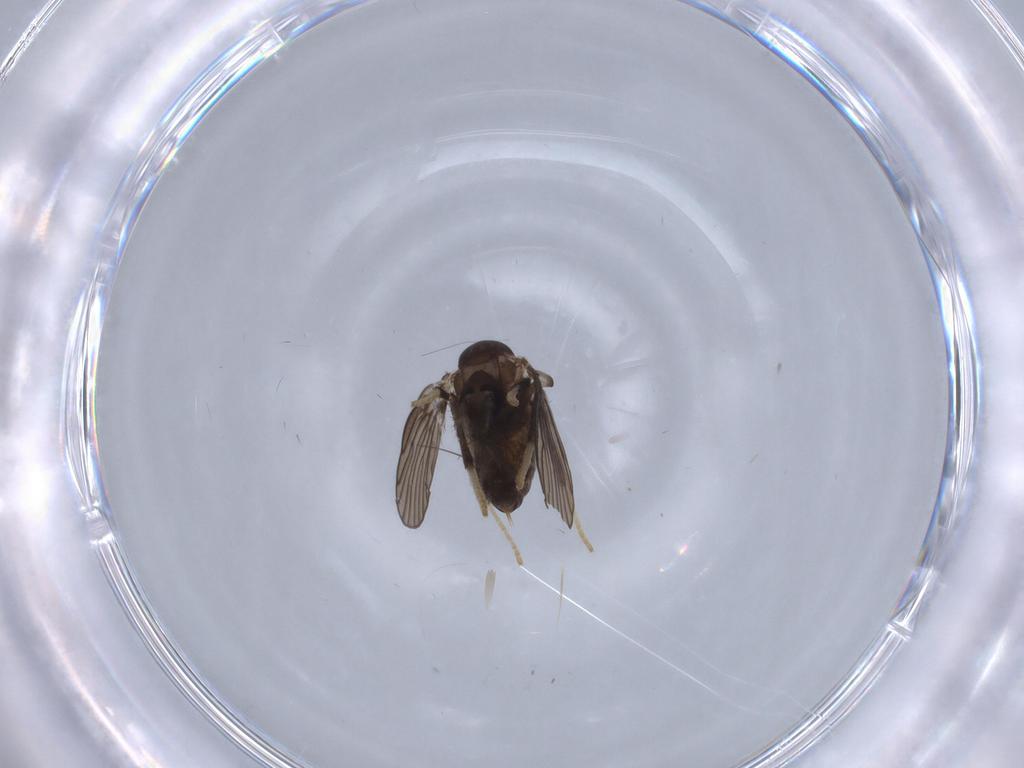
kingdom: Animalia
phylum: Arthropoda
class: Insecta
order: Diptera
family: Psychodidae
